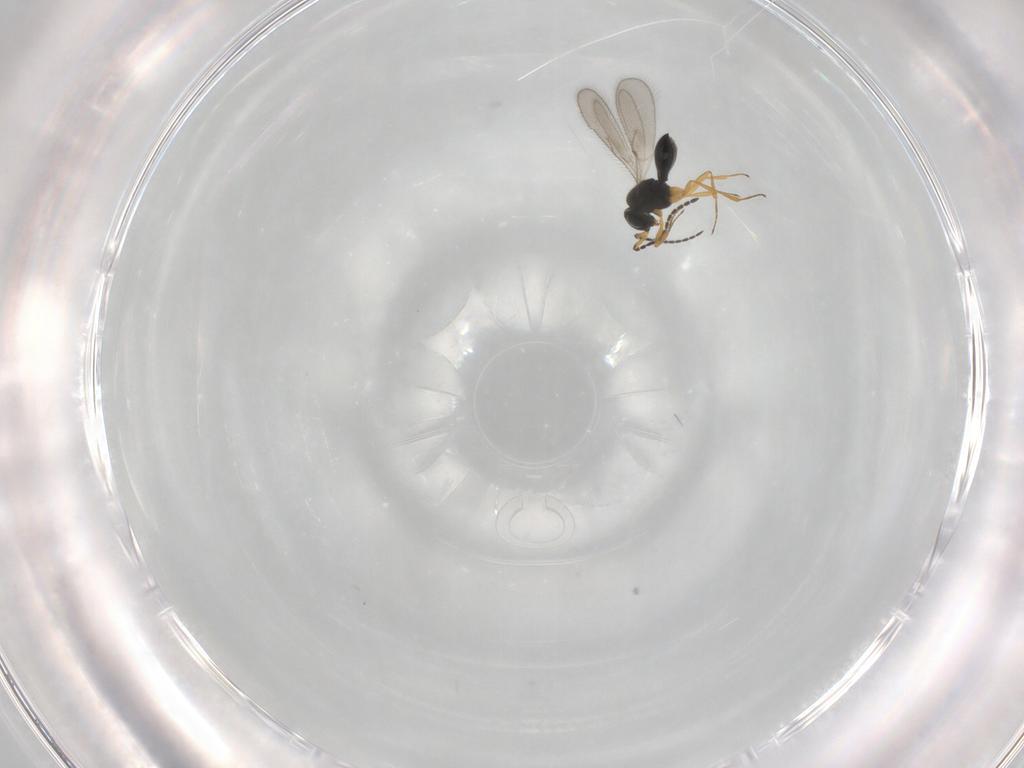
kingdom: Animalia
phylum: Arthropoda
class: Insecta
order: Hymenoptera
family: Scelionidae
